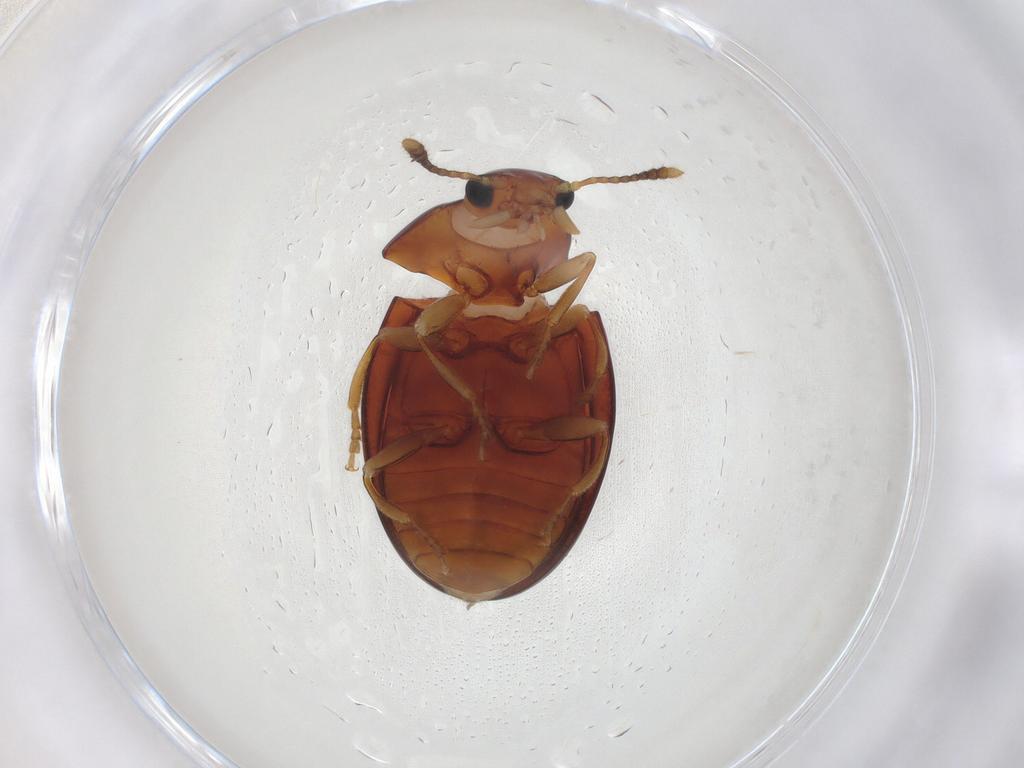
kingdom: Animalia
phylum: Arthropoda
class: Insecta
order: Coleoptera
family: Erotylidae
